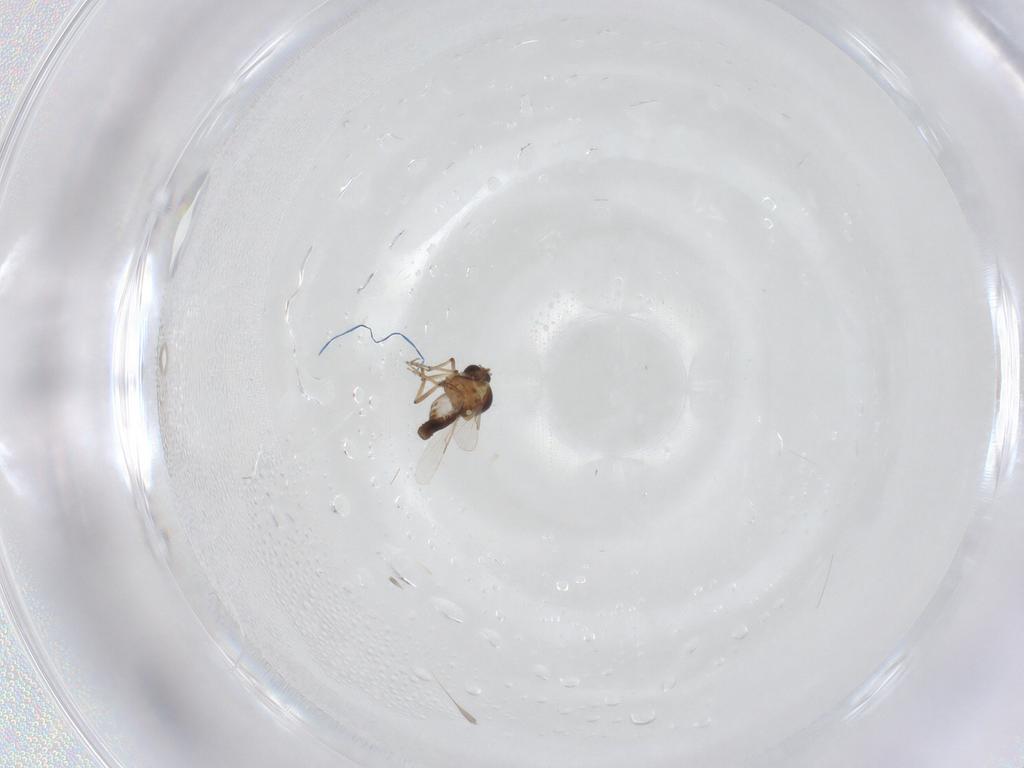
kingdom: Animalia
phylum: Arthropoda
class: Insecta
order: Diptera
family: Ceratopogonidae
